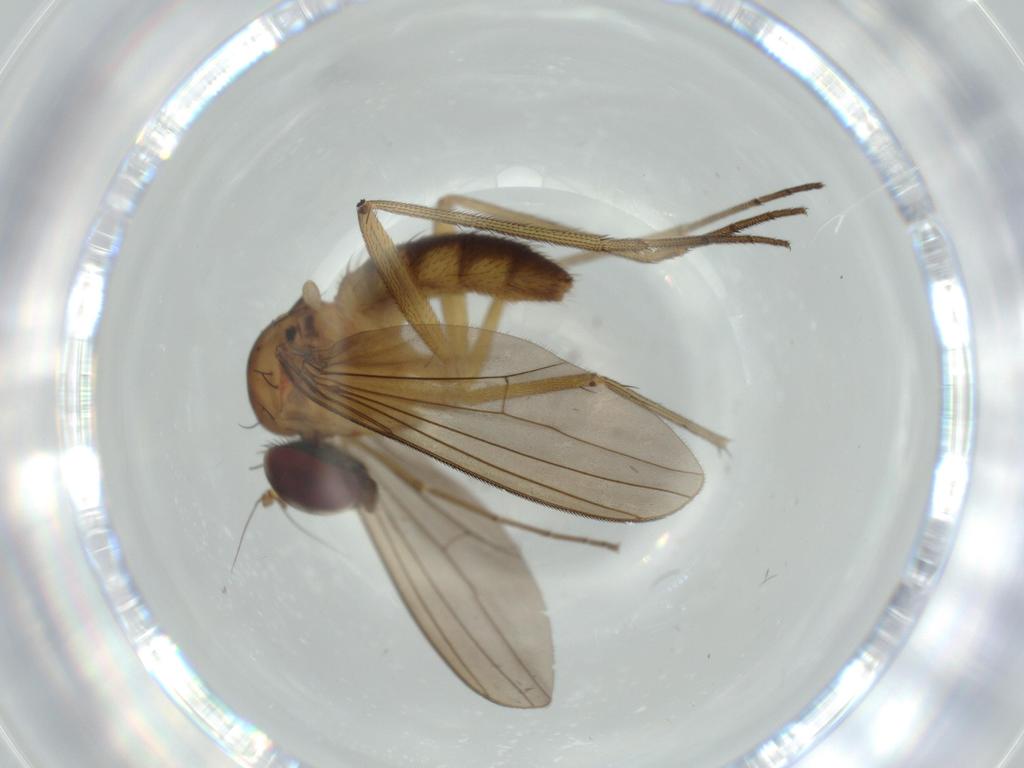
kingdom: Animalia
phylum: Arthropoda
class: Insecta
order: Diptera
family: Dolichopodidae
